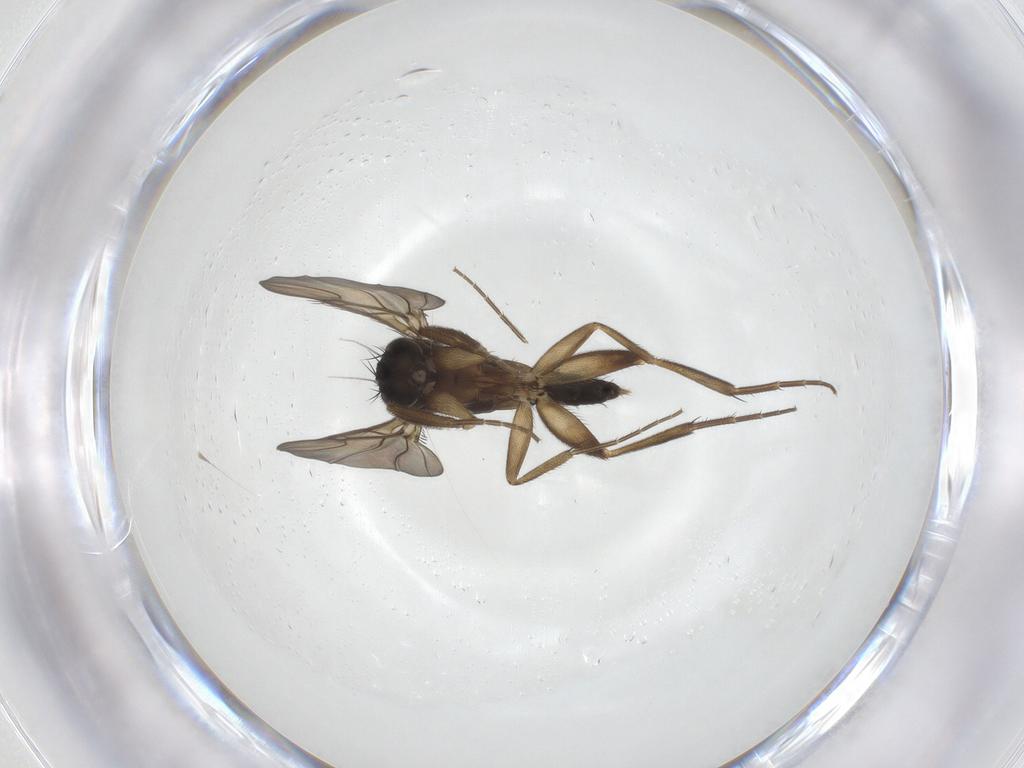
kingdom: Animalia
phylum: Arthropoda
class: Insecta
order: Diptera
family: Phoridae
